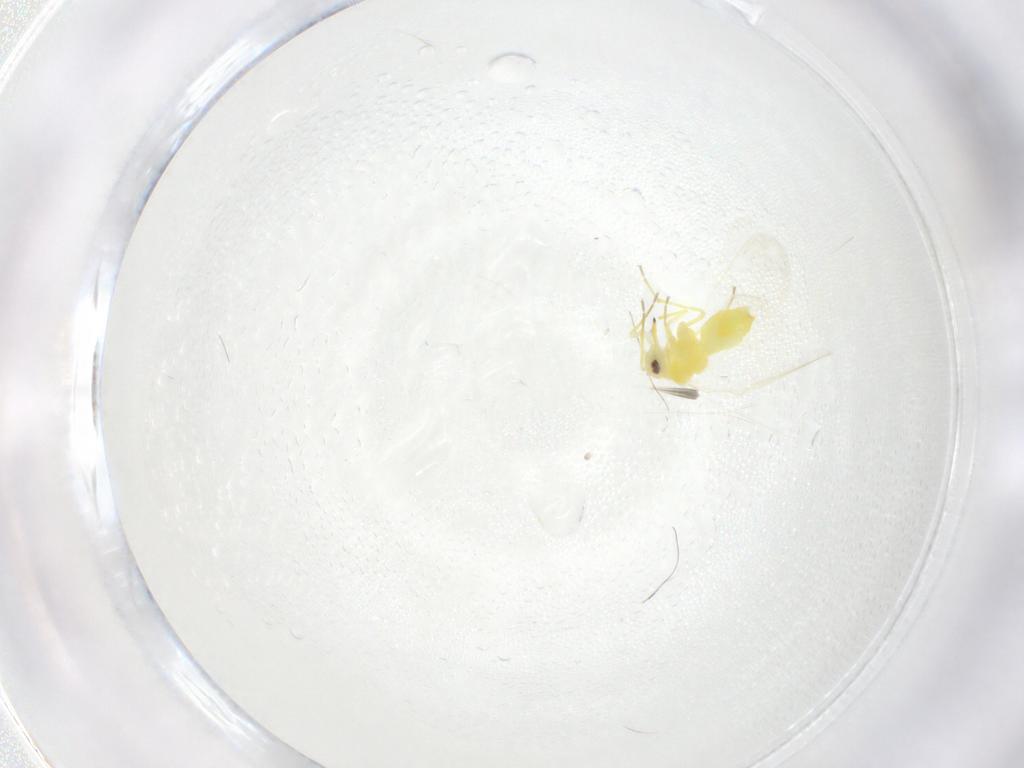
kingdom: Animalia
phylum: Arthropoda
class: Insecta
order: Hemiptera
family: Aleyrodidae
